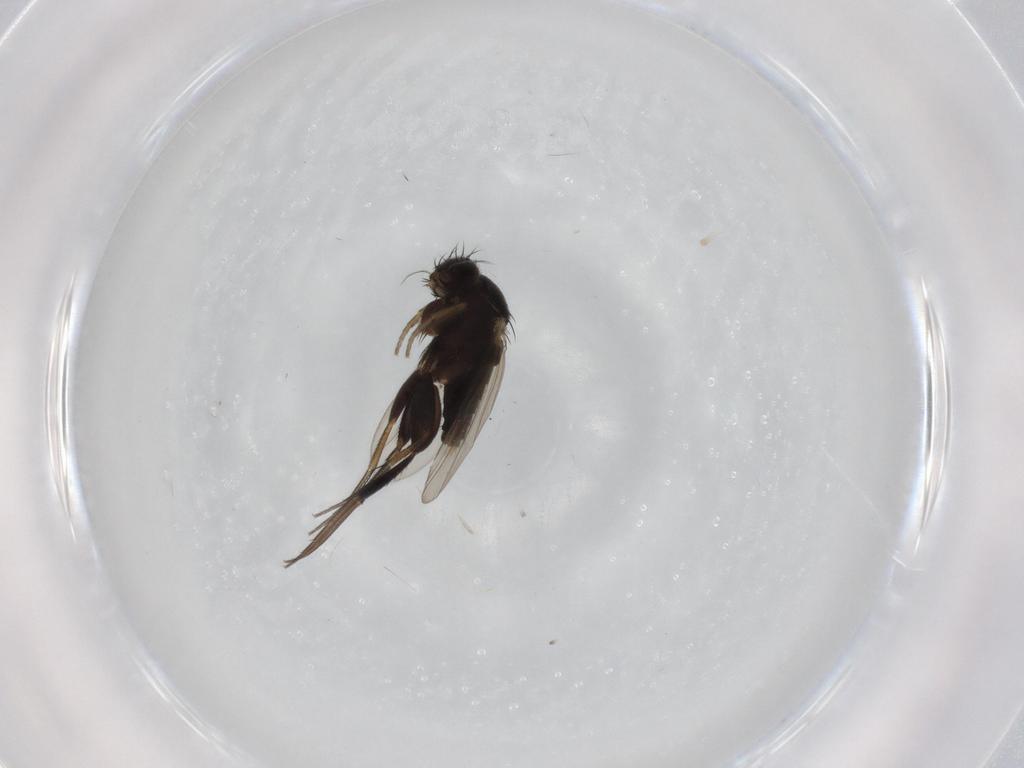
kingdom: Animalia
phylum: Arthropoda
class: Insecta
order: Diptera
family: Phoridae
